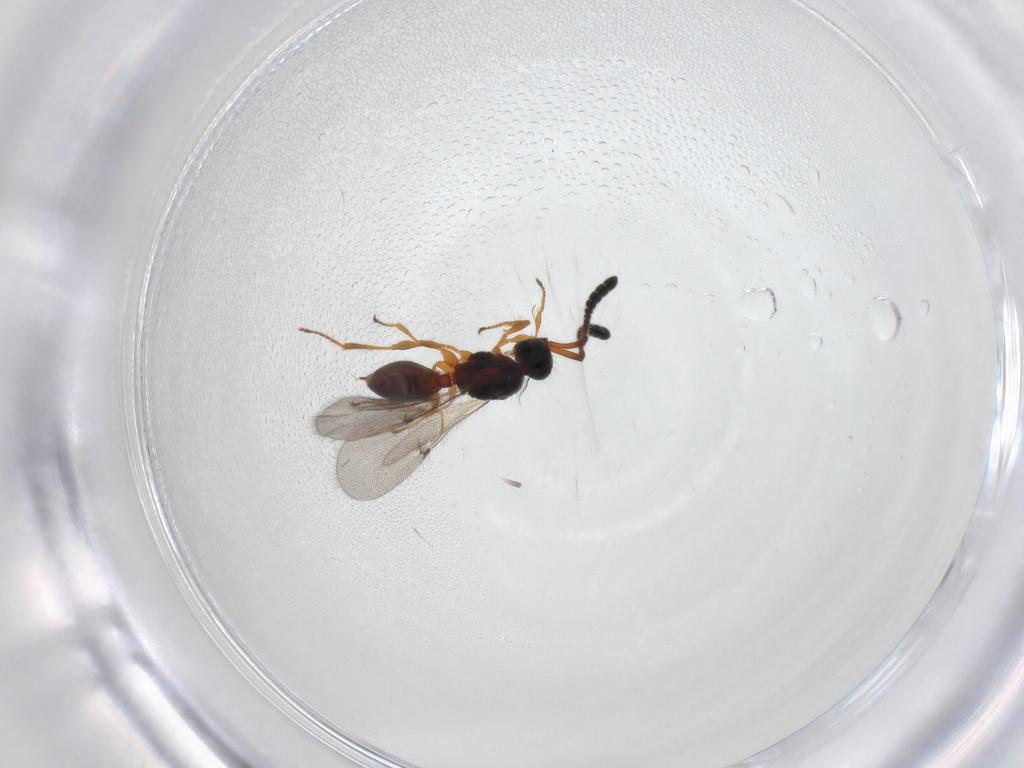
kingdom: Animalia
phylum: Arthropoda
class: Insecta
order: Hymenoptera
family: Diapriidae
